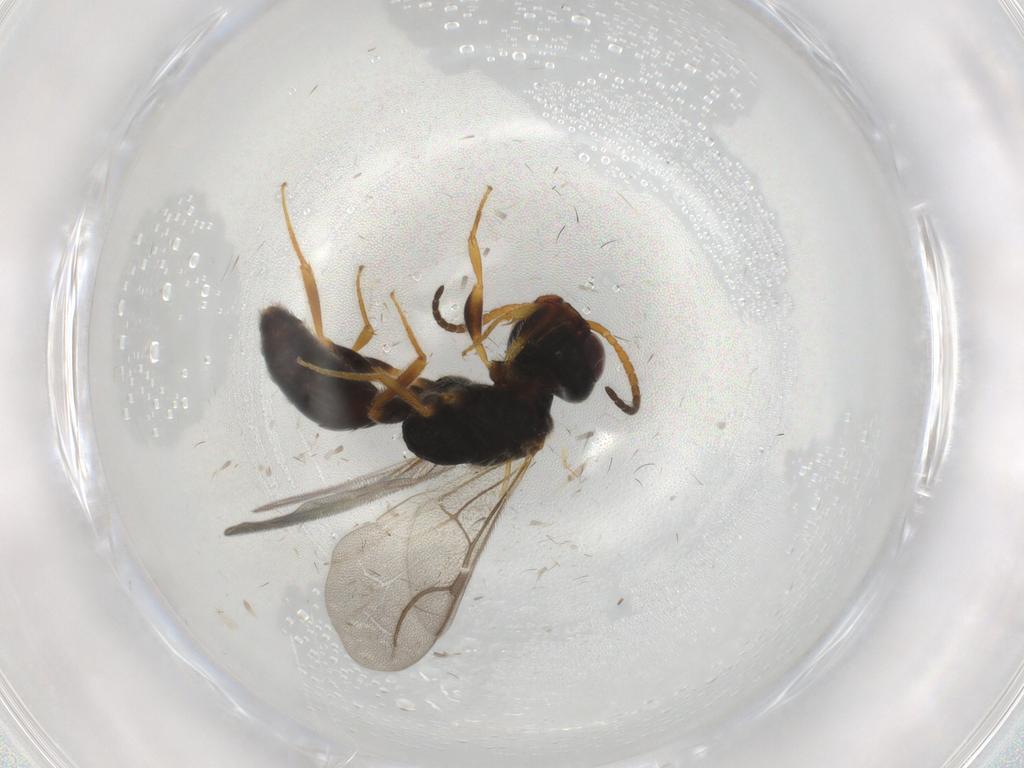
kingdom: Animalia
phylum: Arthropoda
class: Insecta
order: Hymenoptera
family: Bethylidae
